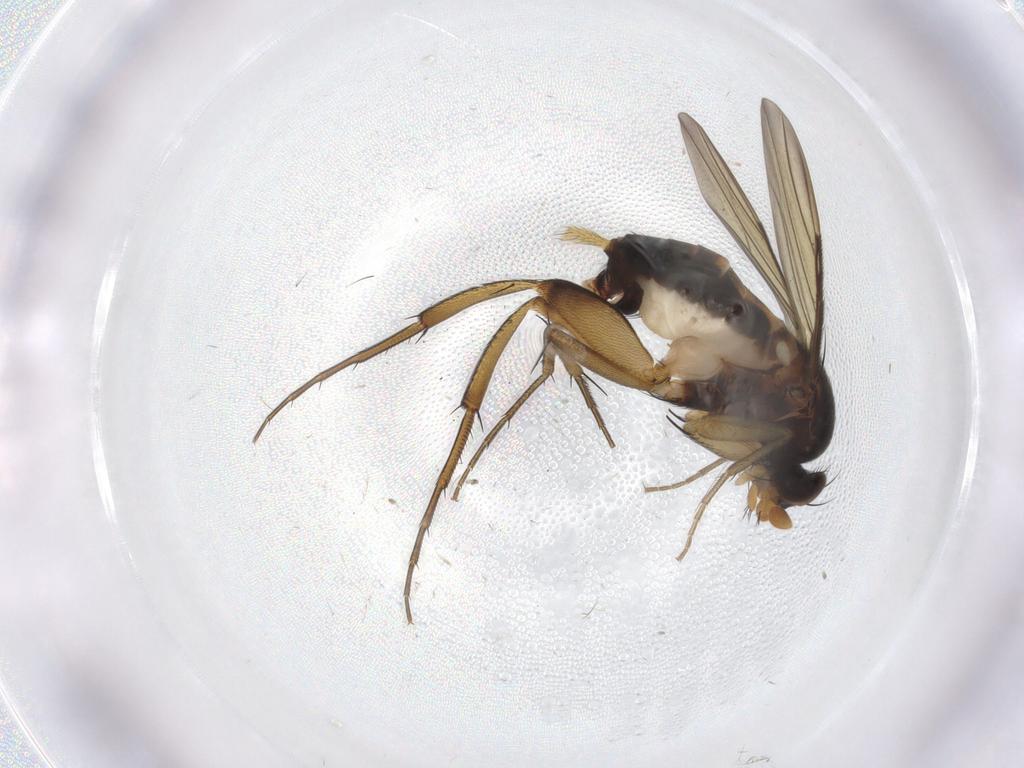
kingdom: Animalia
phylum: Arthropoda
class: Insecta
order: Diptera
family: Phoridae
